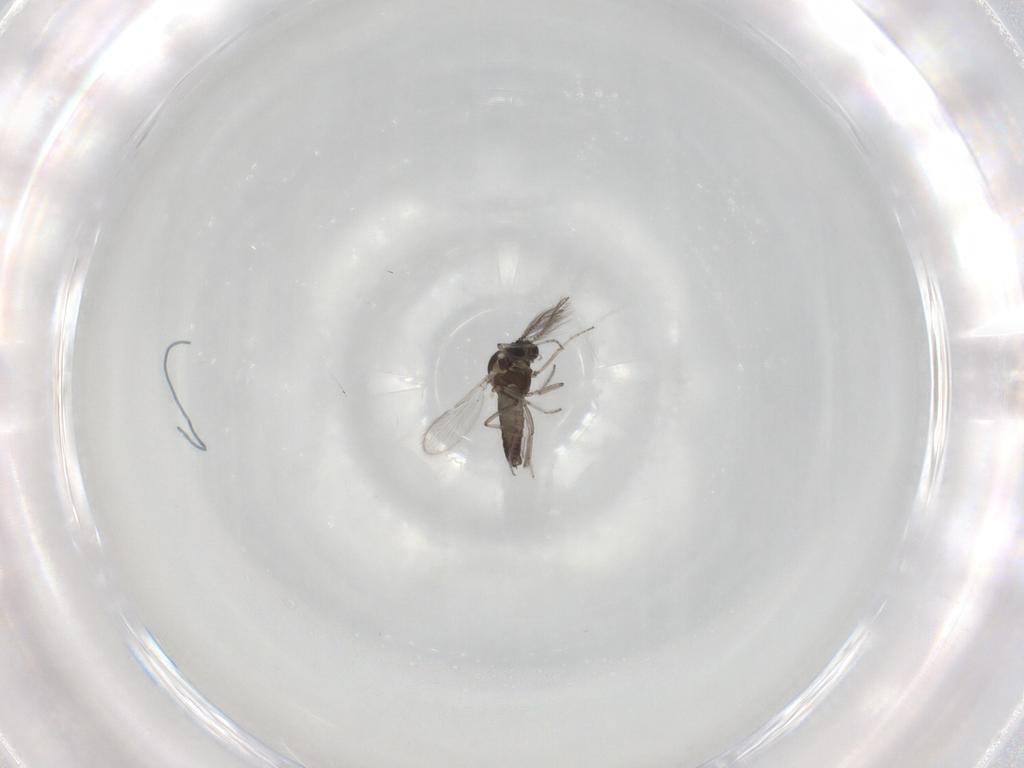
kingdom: Animalia
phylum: Arthropoda
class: Insecta
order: Diptera
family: Ceratopogonidae
